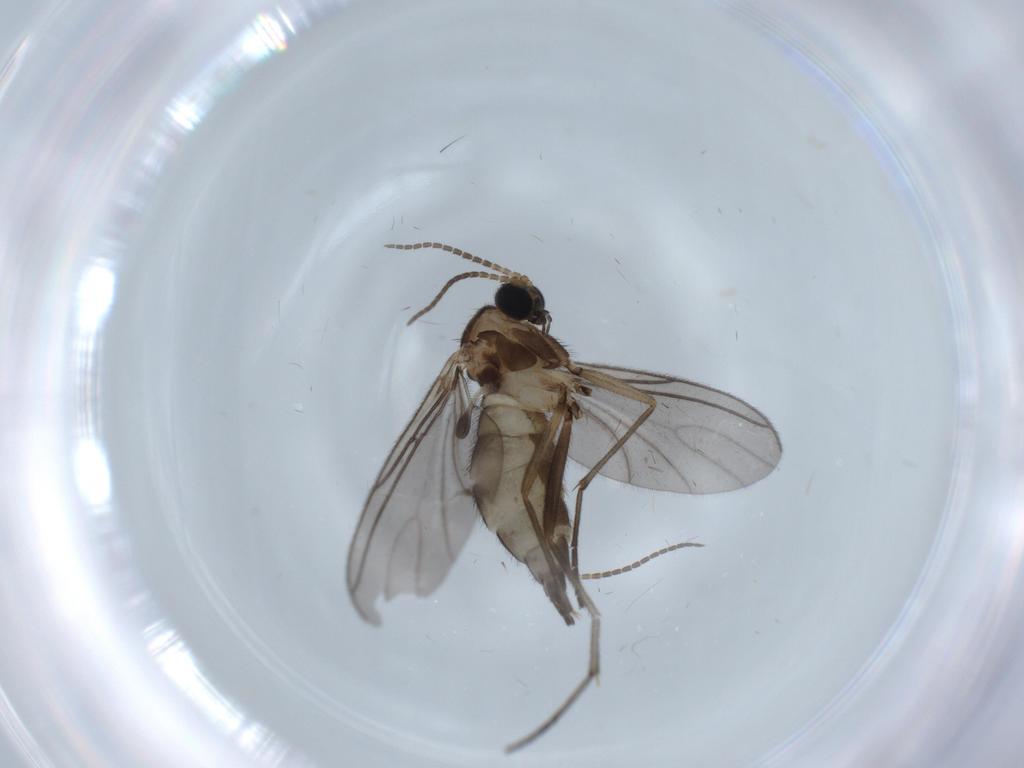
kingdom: Animalia
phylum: Arthropoda
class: Insecta
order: Diptera
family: Sciaridae
